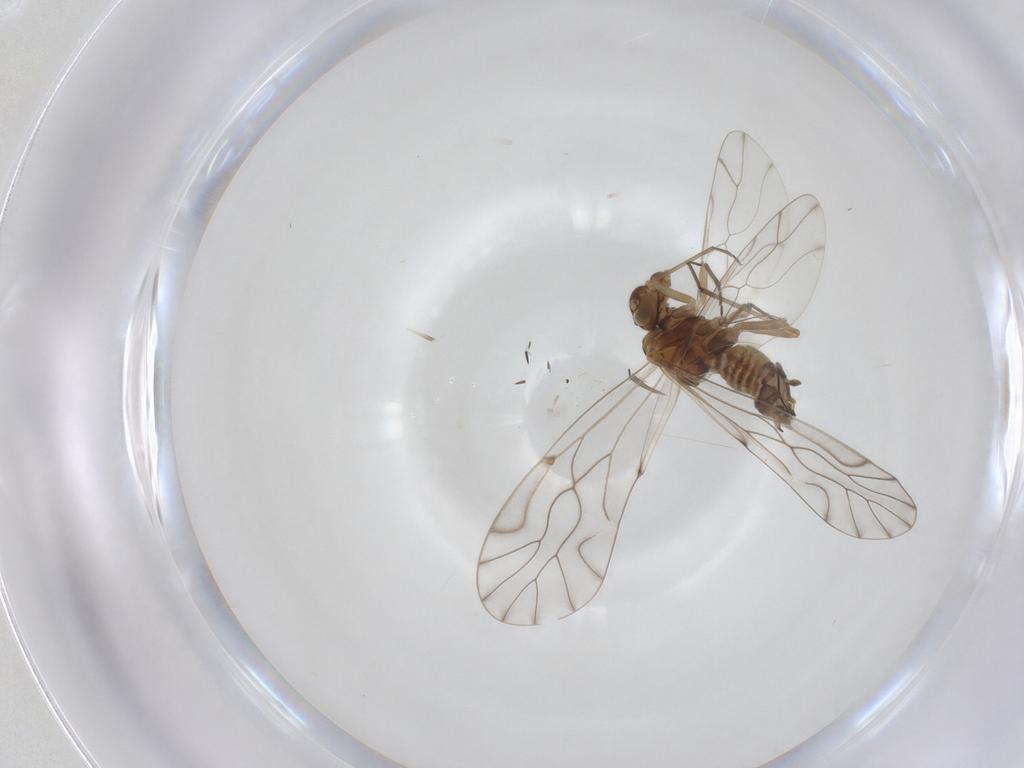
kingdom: Animalia
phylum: Arthropoda
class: Insecta
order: Psocodea
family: Lachesillidae
